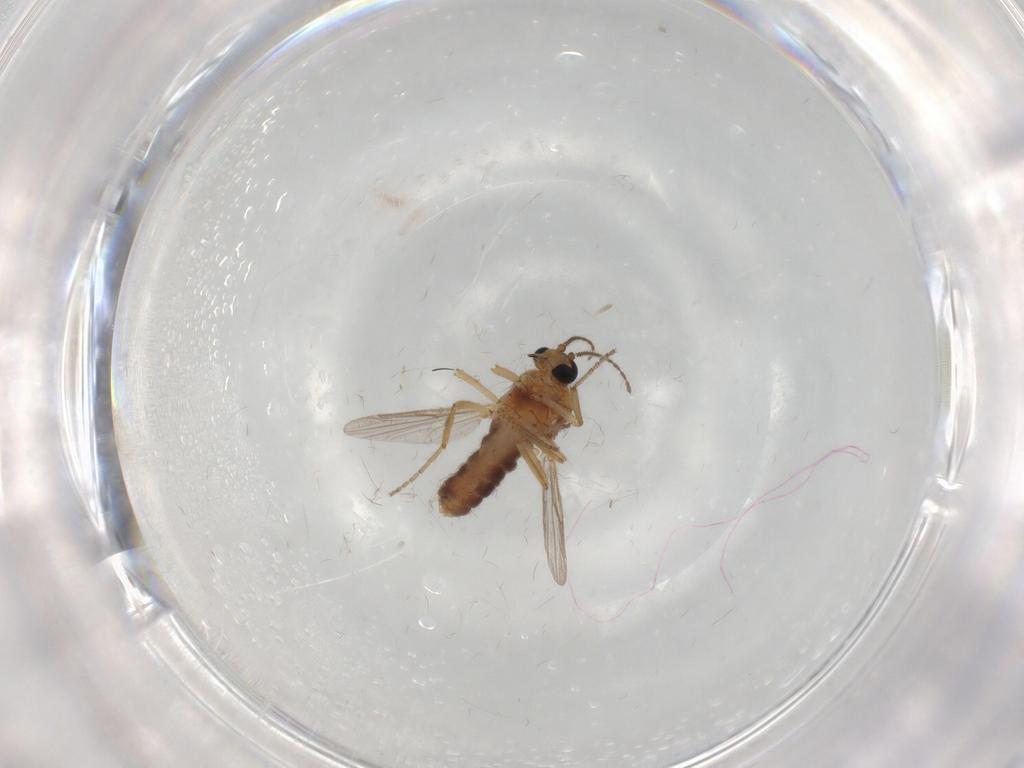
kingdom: Animalia
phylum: Arthropoda
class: Insecta
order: Diptera
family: Ceratopogonidae
